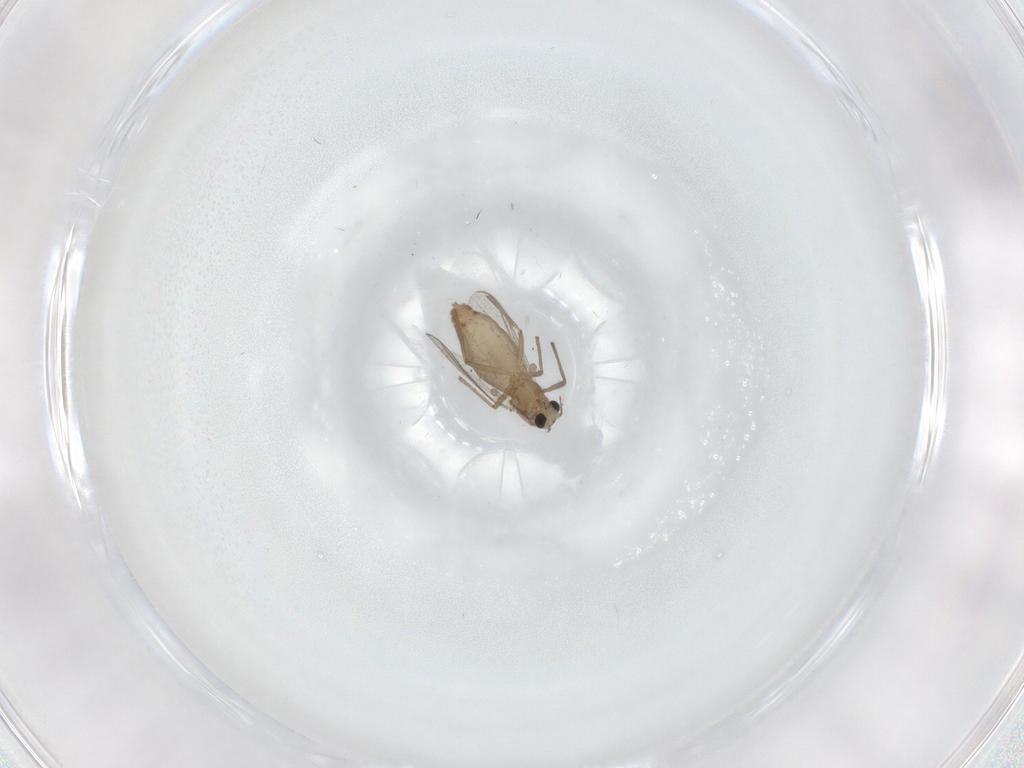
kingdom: Animalia
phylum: Arthropoda
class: Insecta
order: Diptera
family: Chironomidae
